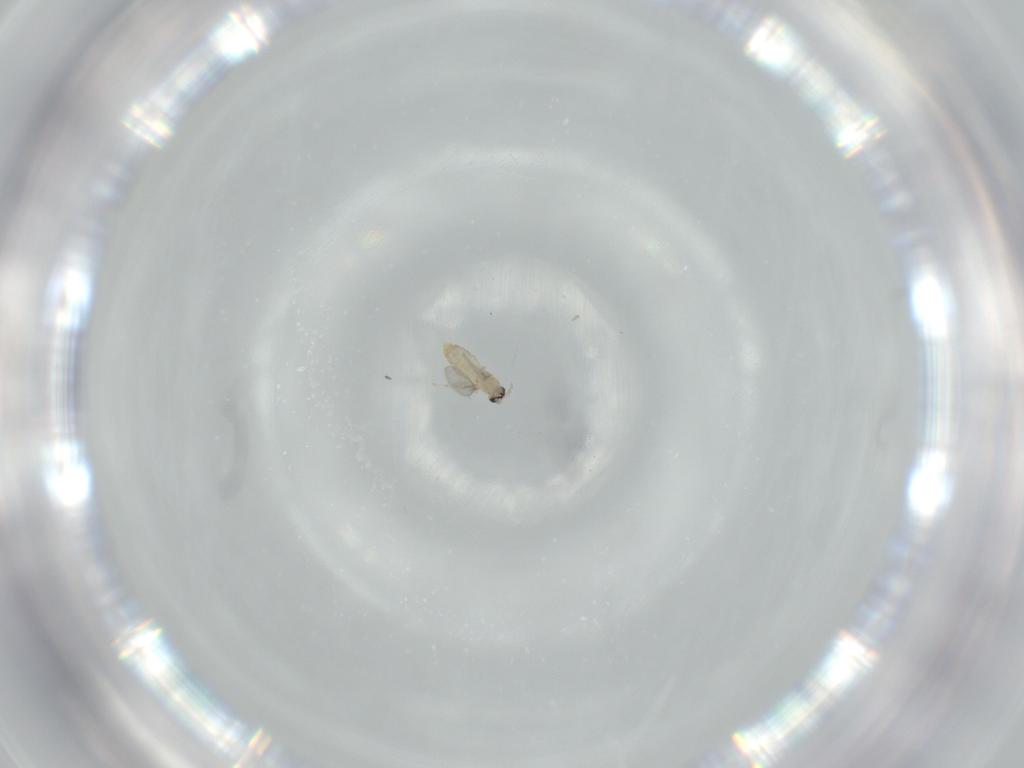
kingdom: Animalia
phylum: Arthropoda
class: Insecta
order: Diptera
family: Cecidomyiidae
